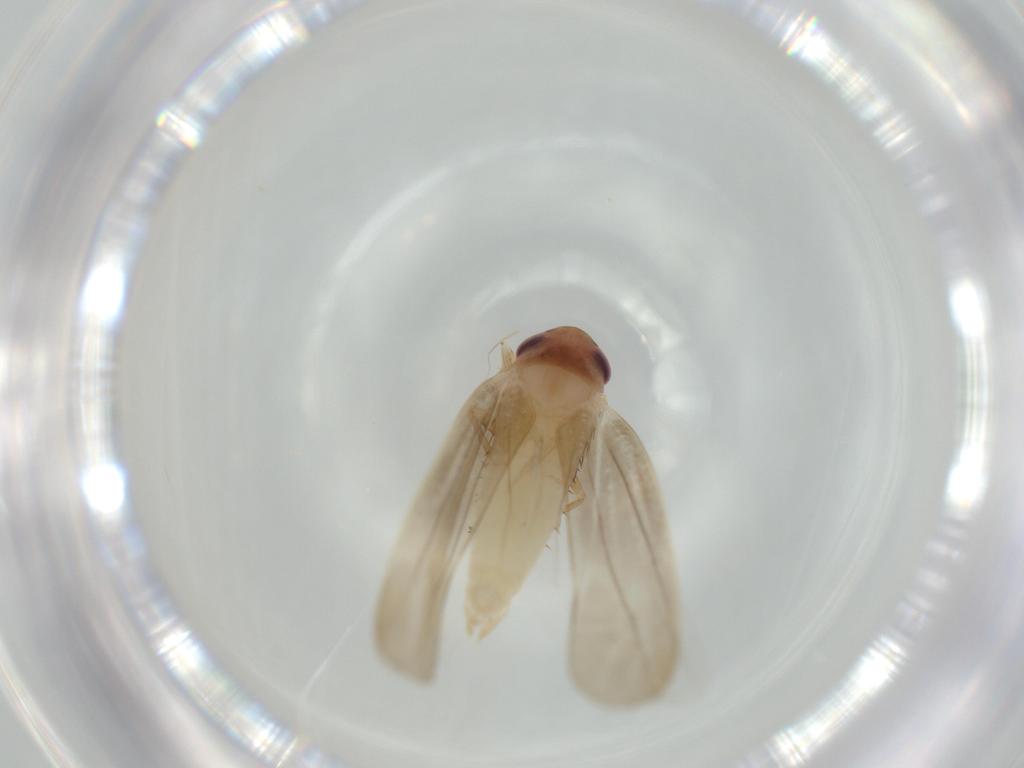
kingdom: Animalia
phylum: Arthropoda
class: Insecta
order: Hemiptera
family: Cicadellidae
